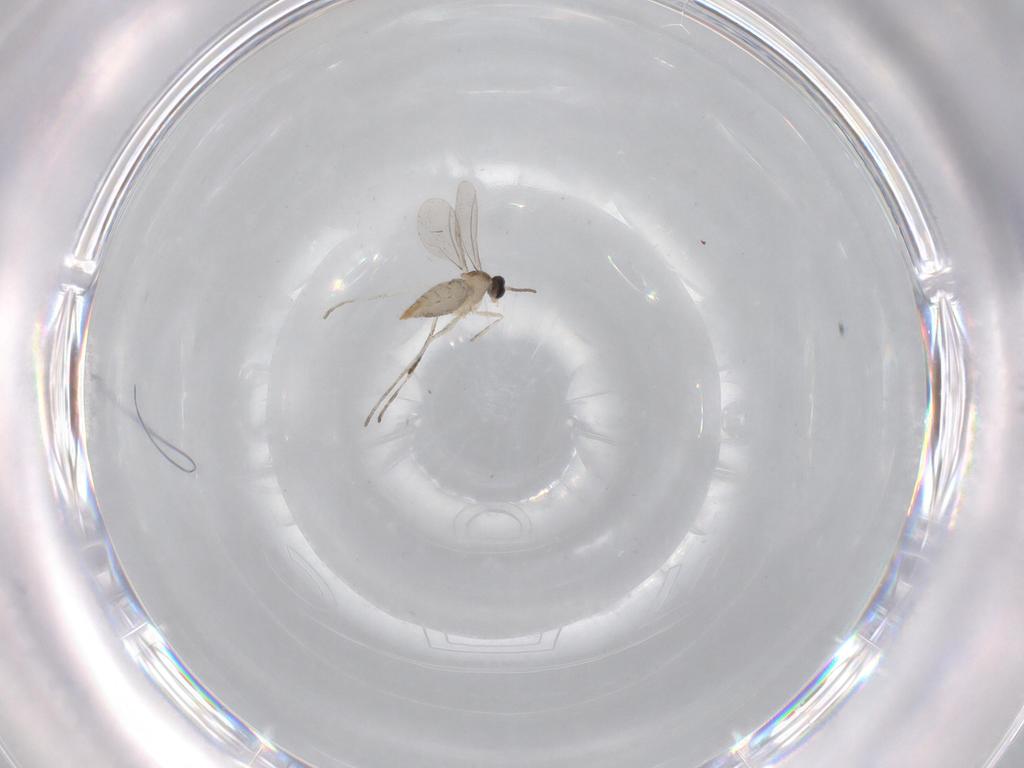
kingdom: Animalia
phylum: Arthropoda
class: Insecta
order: Diptera
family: Cecidomyiidae
